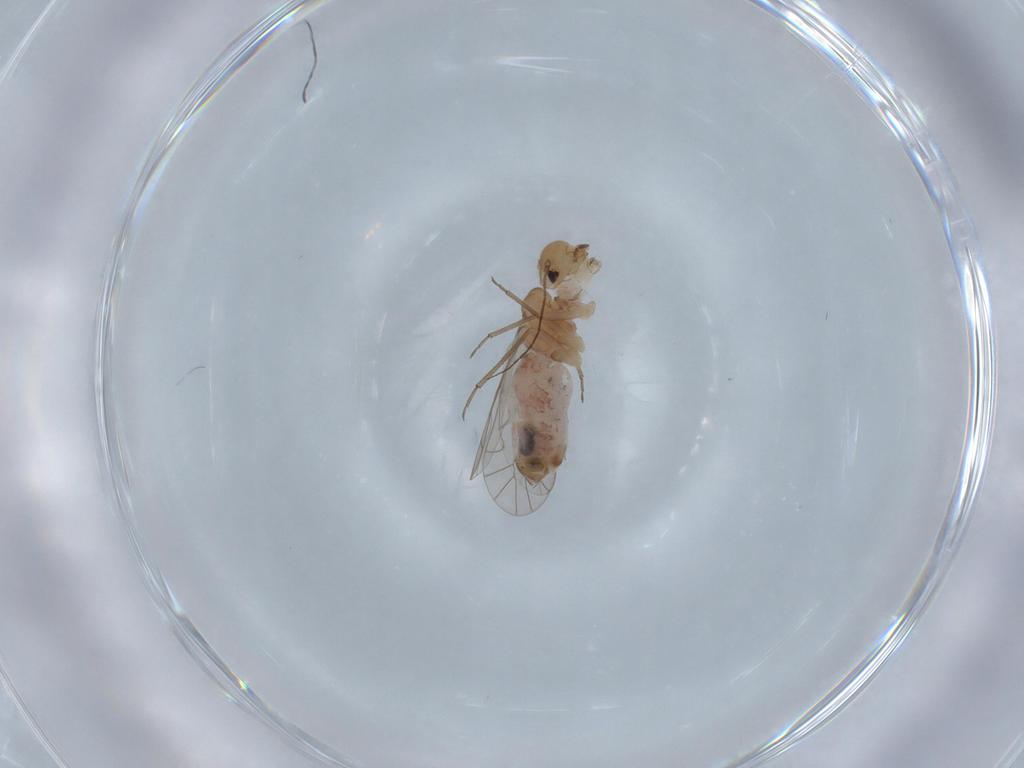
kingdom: Animalia
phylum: Arthropoda
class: Insecta
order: Psocodea
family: Lachesillidae
